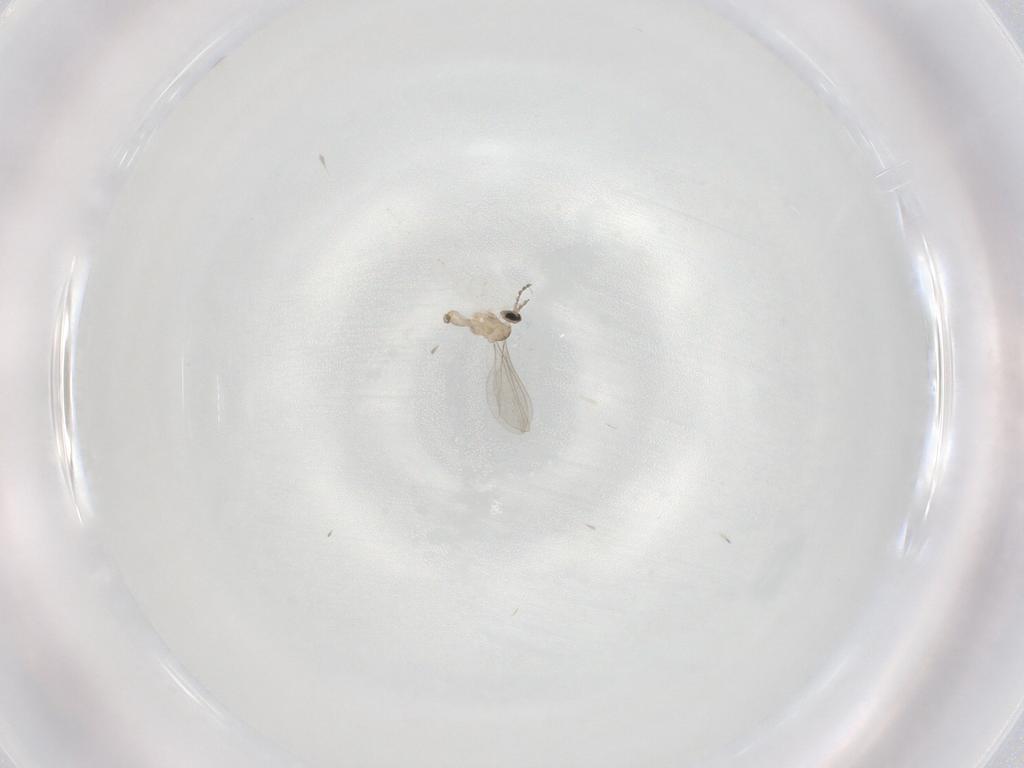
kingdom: Animalia
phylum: Arthropoda
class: Insecta
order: Diptera
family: Cecidomyiidae
